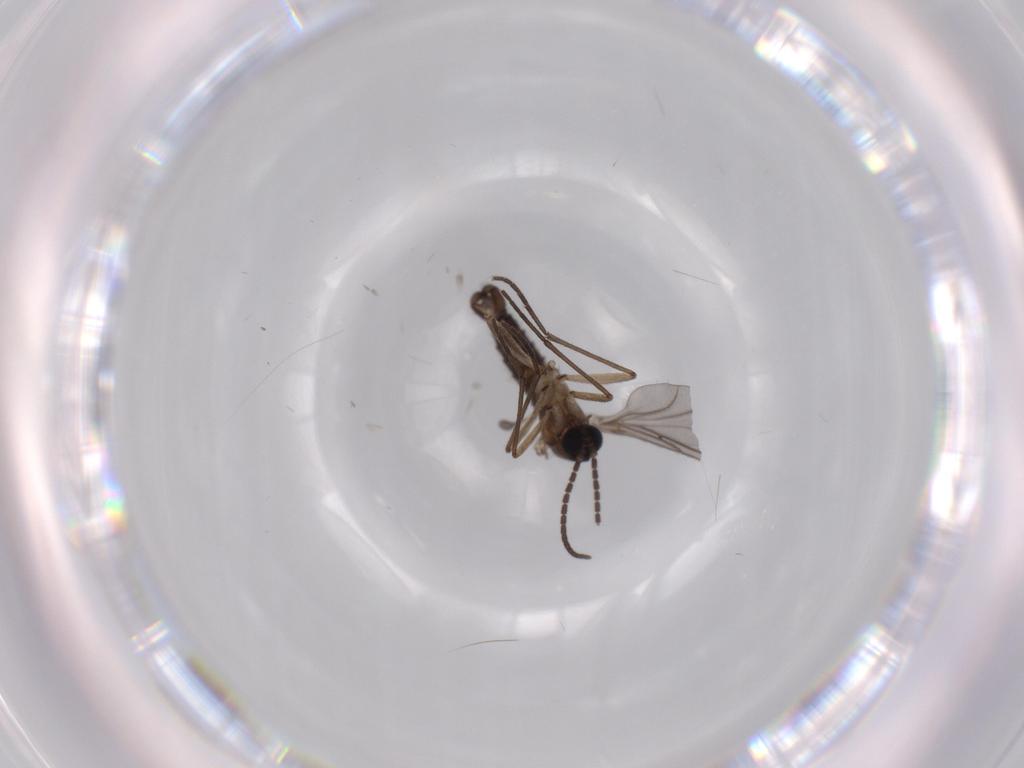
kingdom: Animalia
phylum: Arthropoda
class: Insecta
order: Diptera
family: Sciaridae
